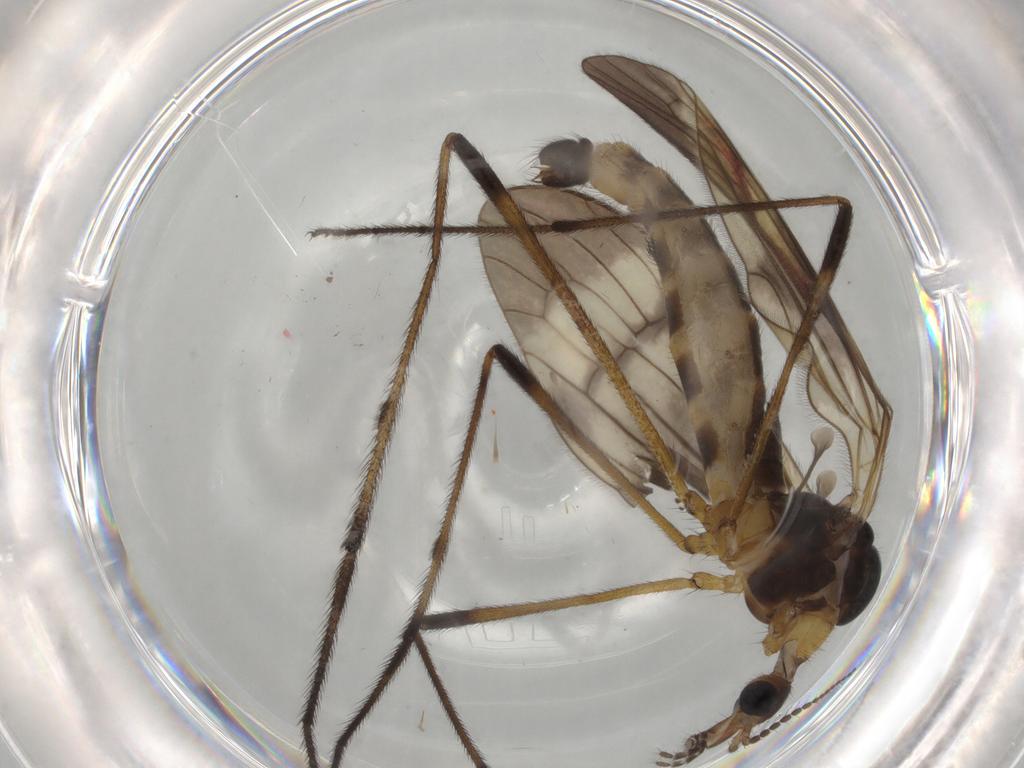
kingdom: Animalia
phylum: Arthropoda
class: Insecta
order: Diptera
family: Limoniidae
